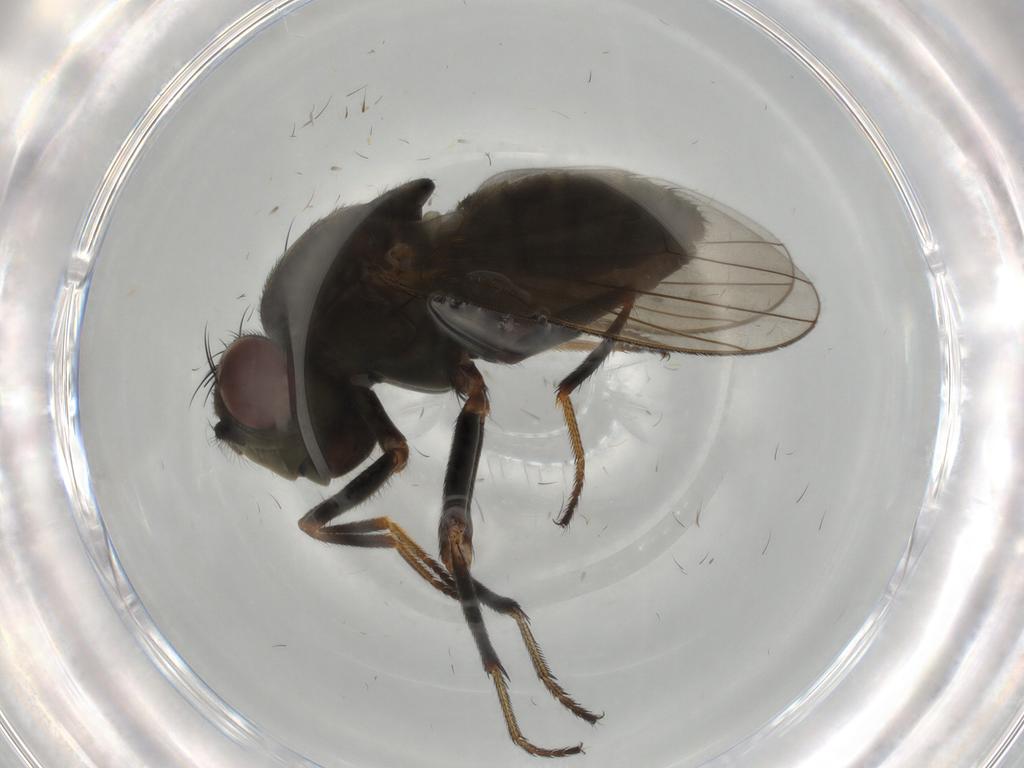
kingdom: Animalia
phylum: Arthropoda
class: Insecta
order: Diptera
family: Ephydridae
